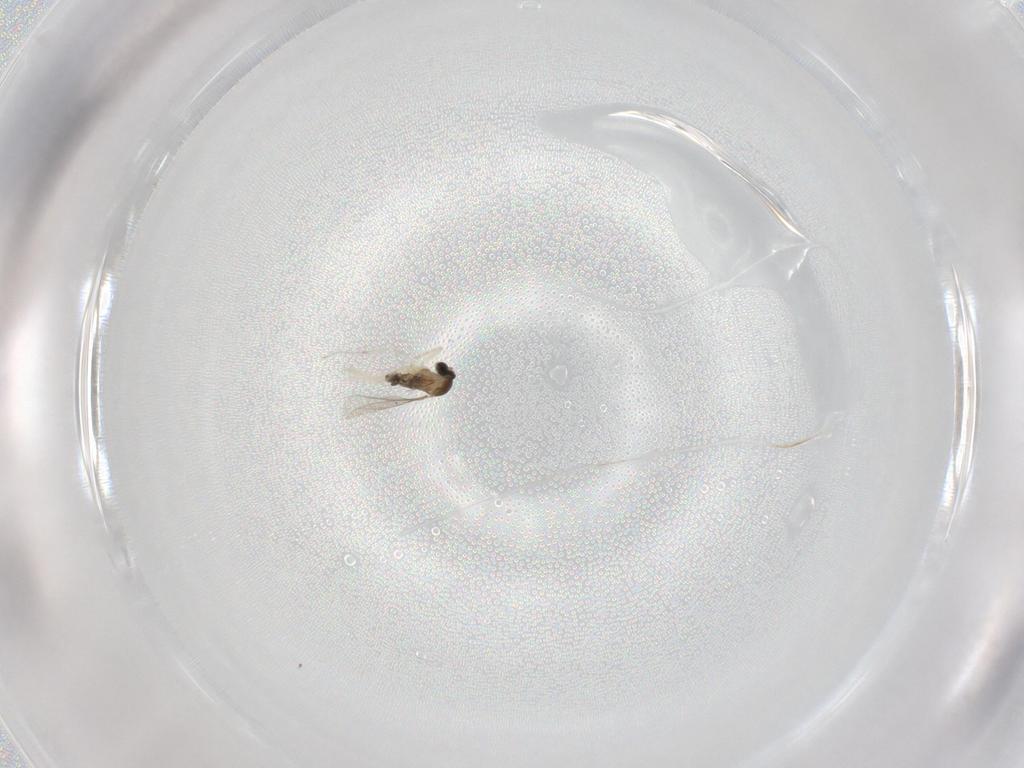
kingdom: Animalia
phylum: Arthropoda
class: Insecta
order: Diptera
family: Cecidomyiidae
